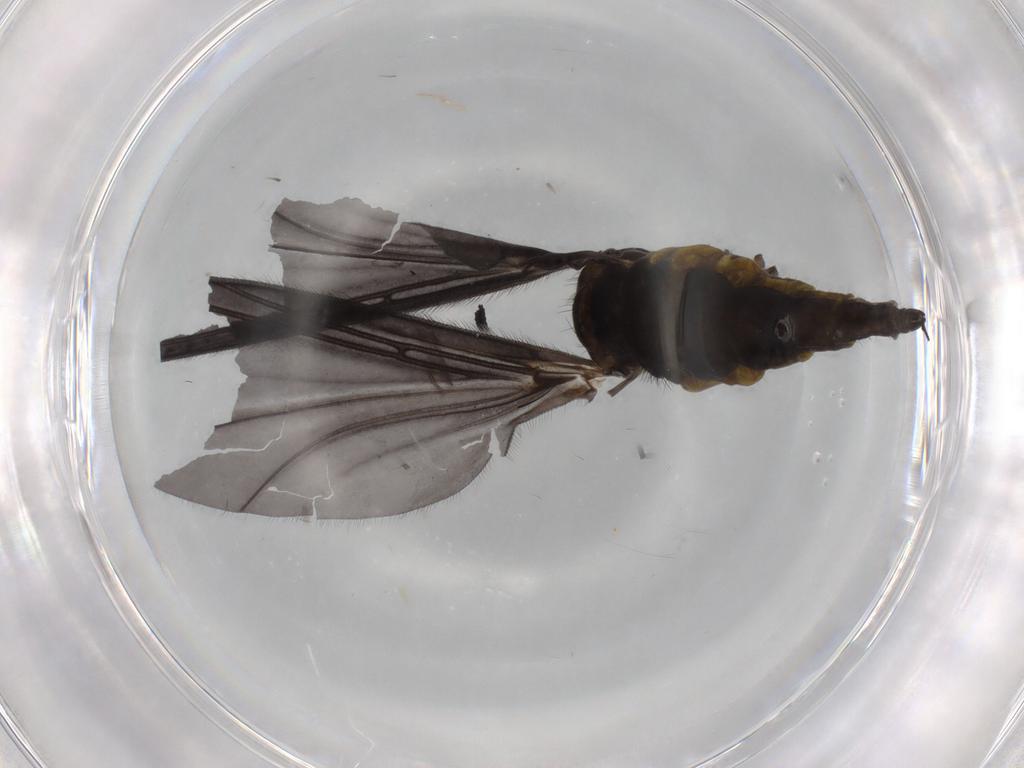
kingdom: Animalia
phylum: Arthropoda
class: Insecta
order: Diptera
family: Sciaridae
